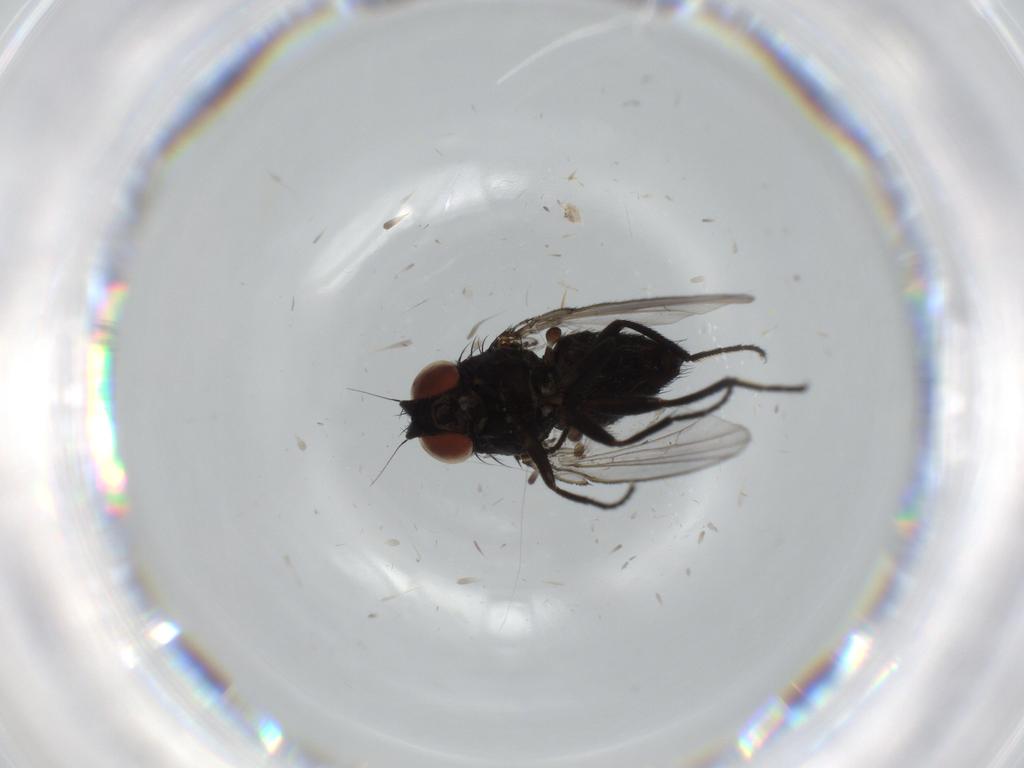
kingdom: Animalia
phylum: Arthropoda
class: Insecta
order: Diptera
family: Milichiidae
